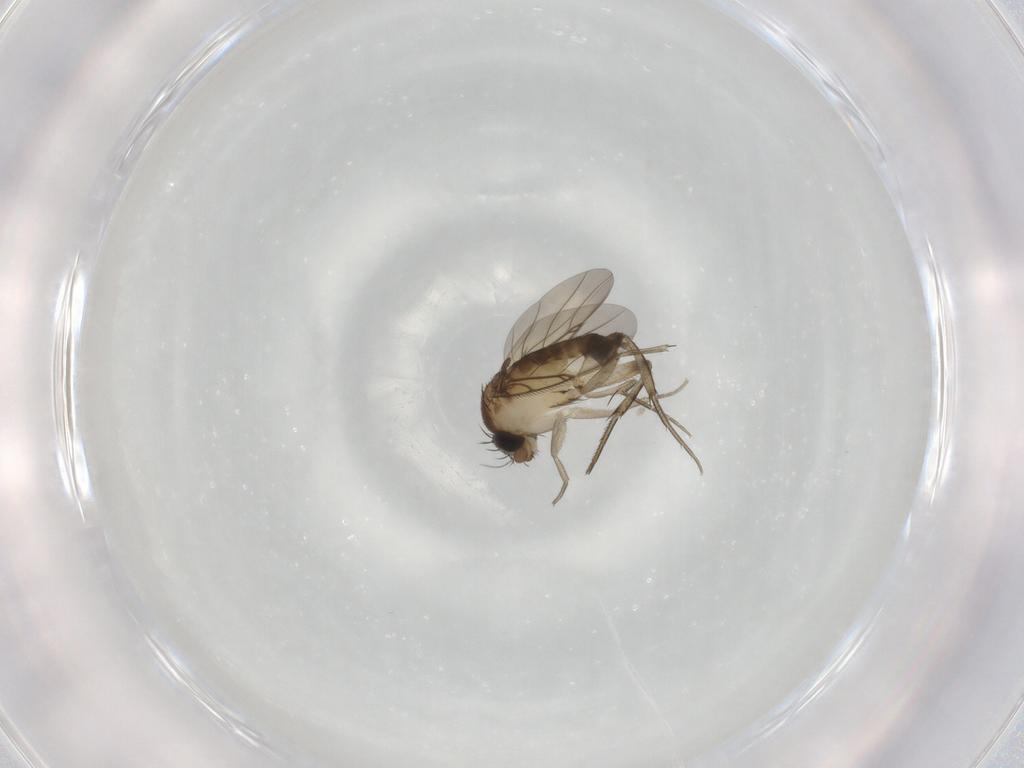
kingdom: Animalia
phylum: Arthropoda
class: Insecta
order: Diptera
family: Phoridae
